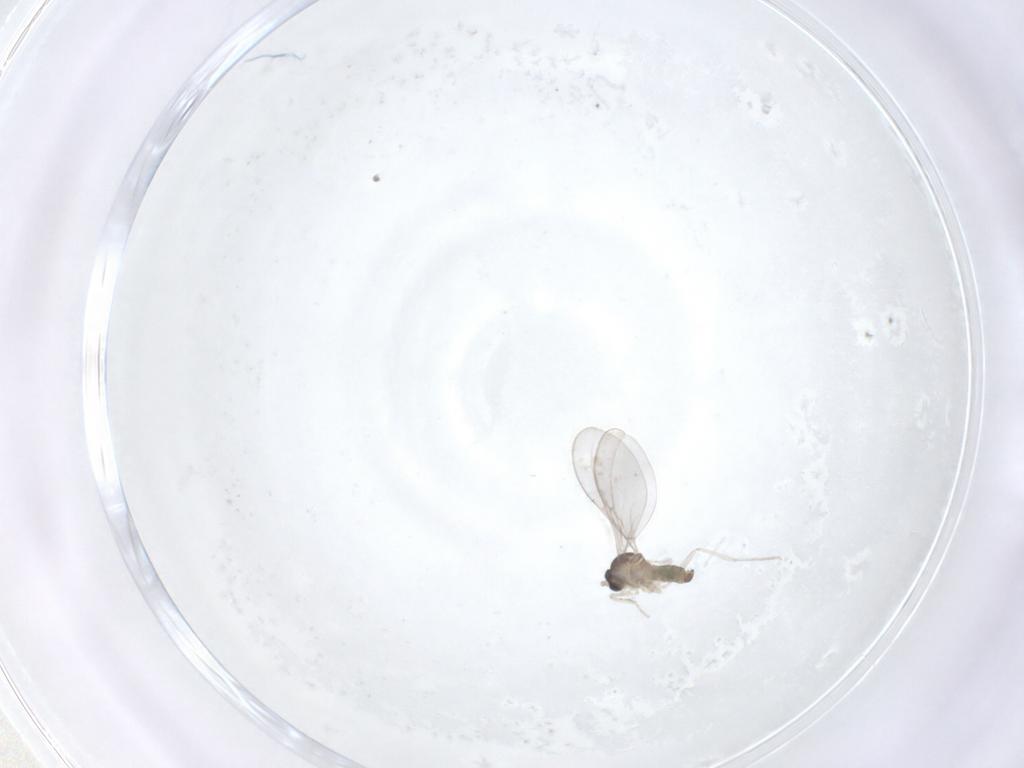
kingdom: Animalia
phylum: Arthropoda
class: Insecta
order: Diptera
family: Cecidomyiidae
